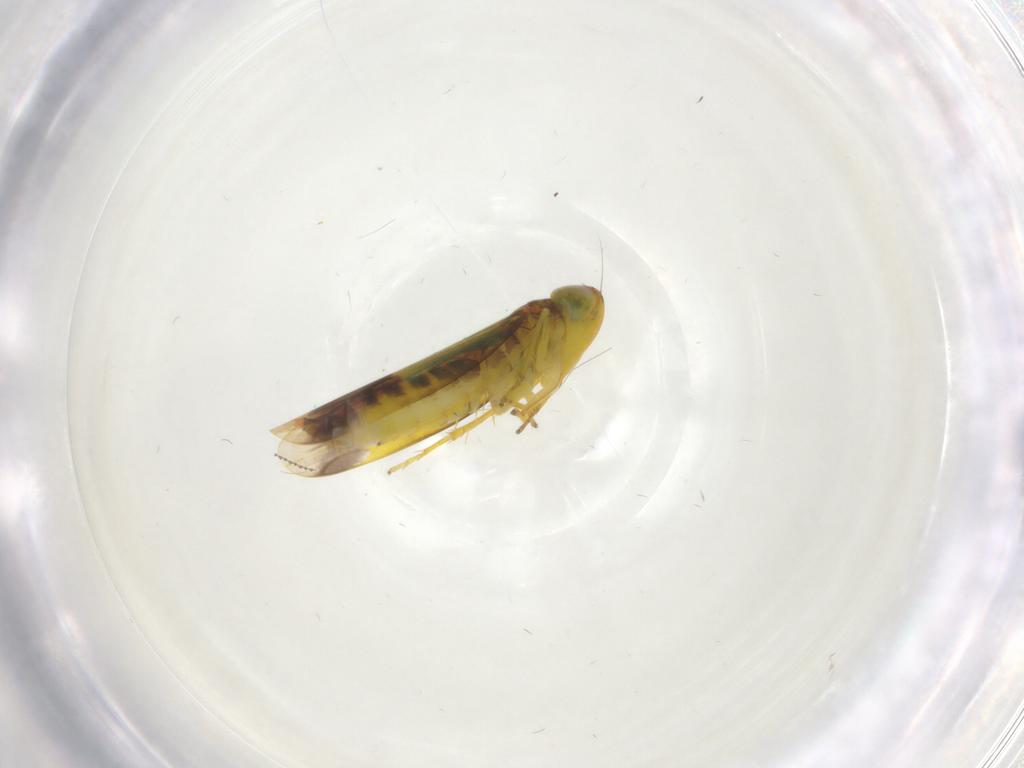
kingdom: Animalia
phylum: Arthropoda
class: Insecta
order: Hemiptera
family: Cicadellidae
